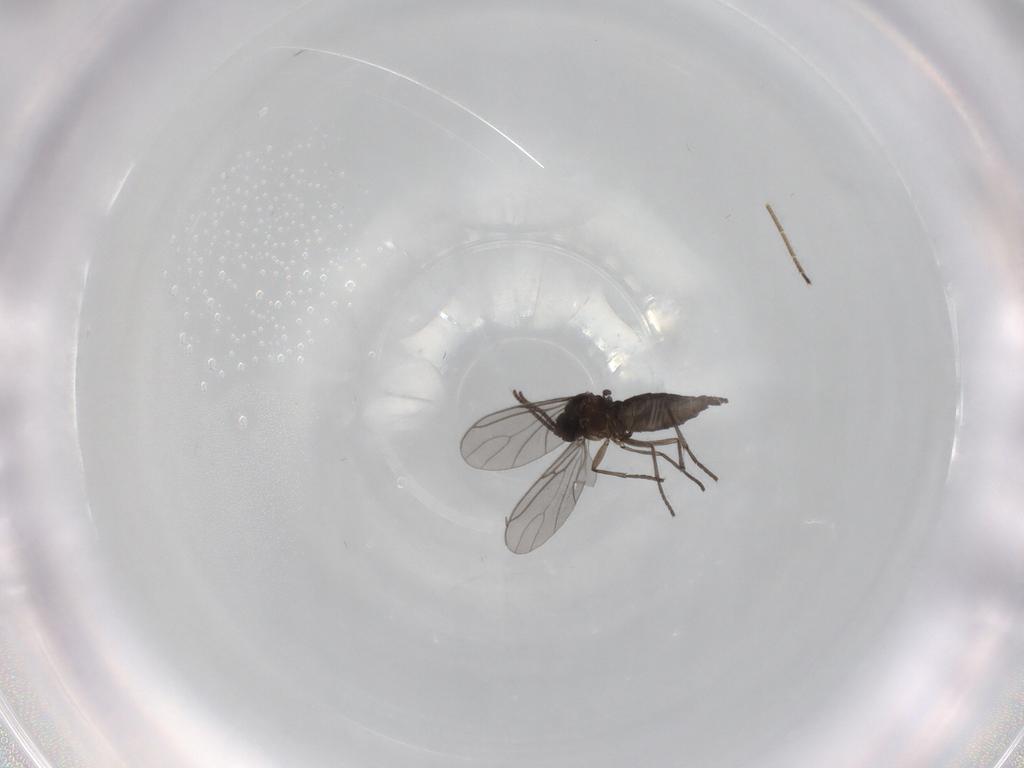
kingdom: Animalia
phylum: Arthropoda
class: Insecta
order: Diptera
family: Sciaridae
